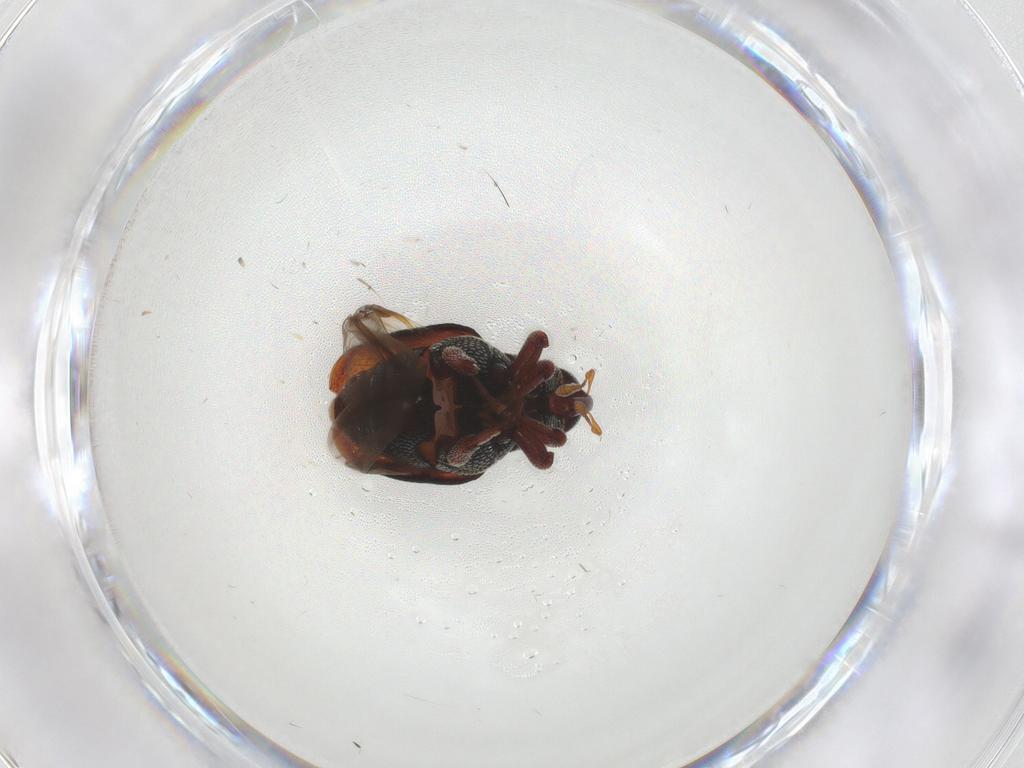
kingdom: Animalia
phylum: Arthropoda
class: Insecta
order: Coleoptera
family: Curculionidae
